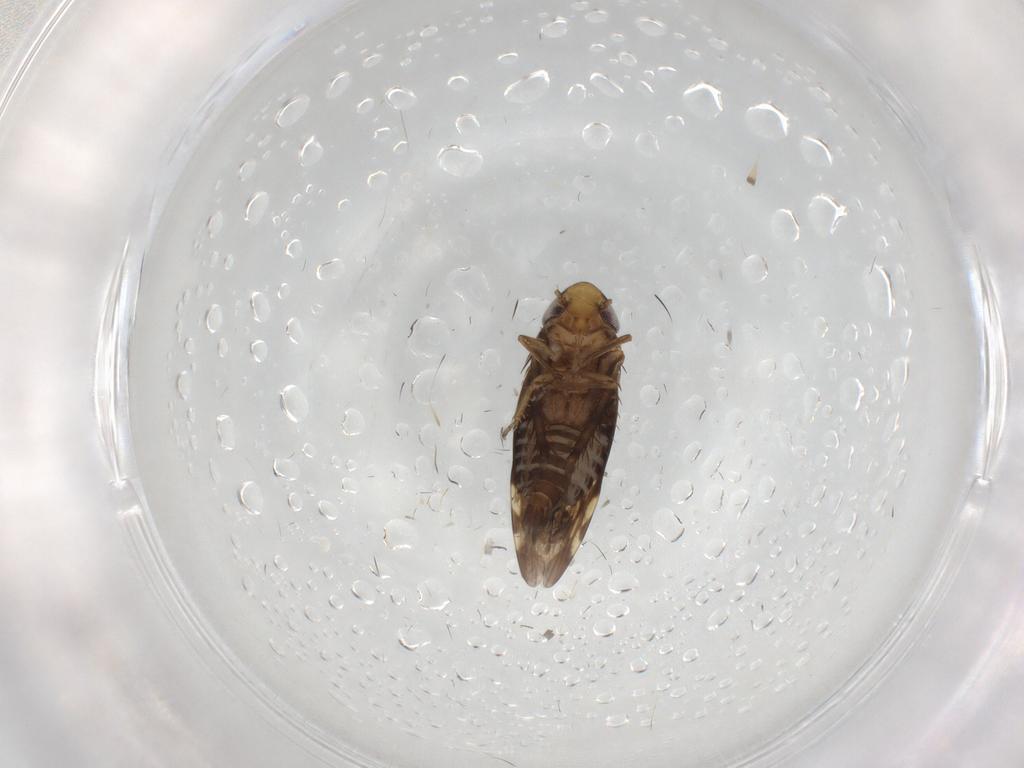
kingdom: Animalia
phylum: Arthropoda
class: Insecta
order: Hemiptera
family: Cicadellidae
